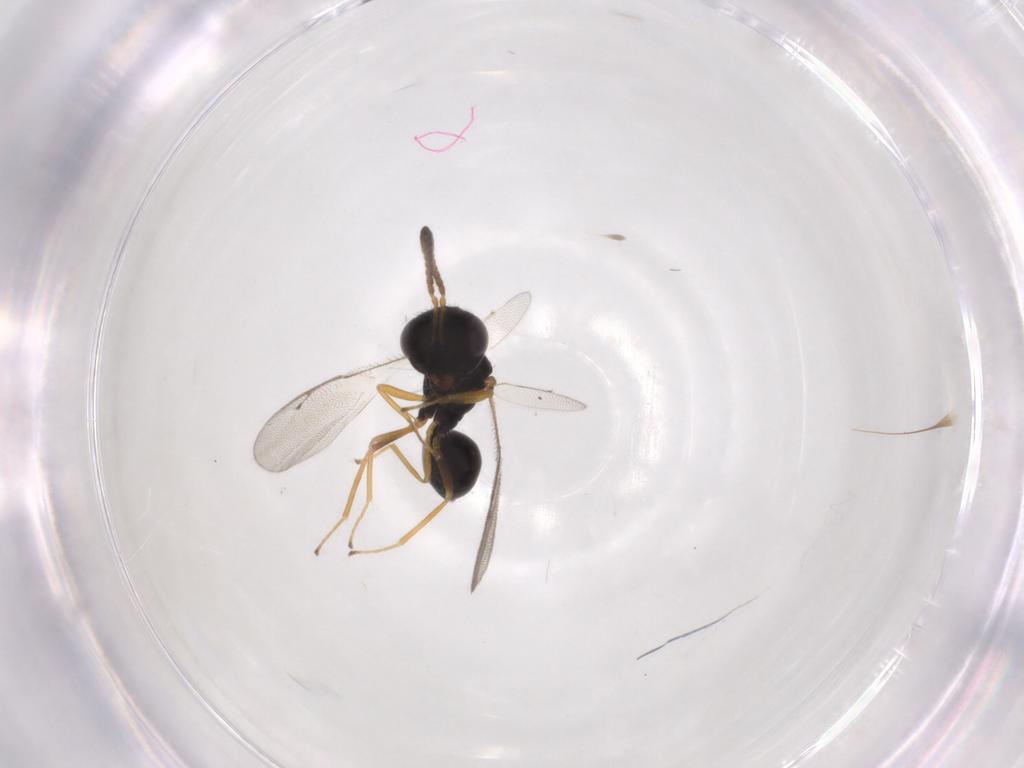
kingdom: Animalia
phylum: Arthropoda
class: Insecta
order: Hymenoptera
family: Pteromalidae
